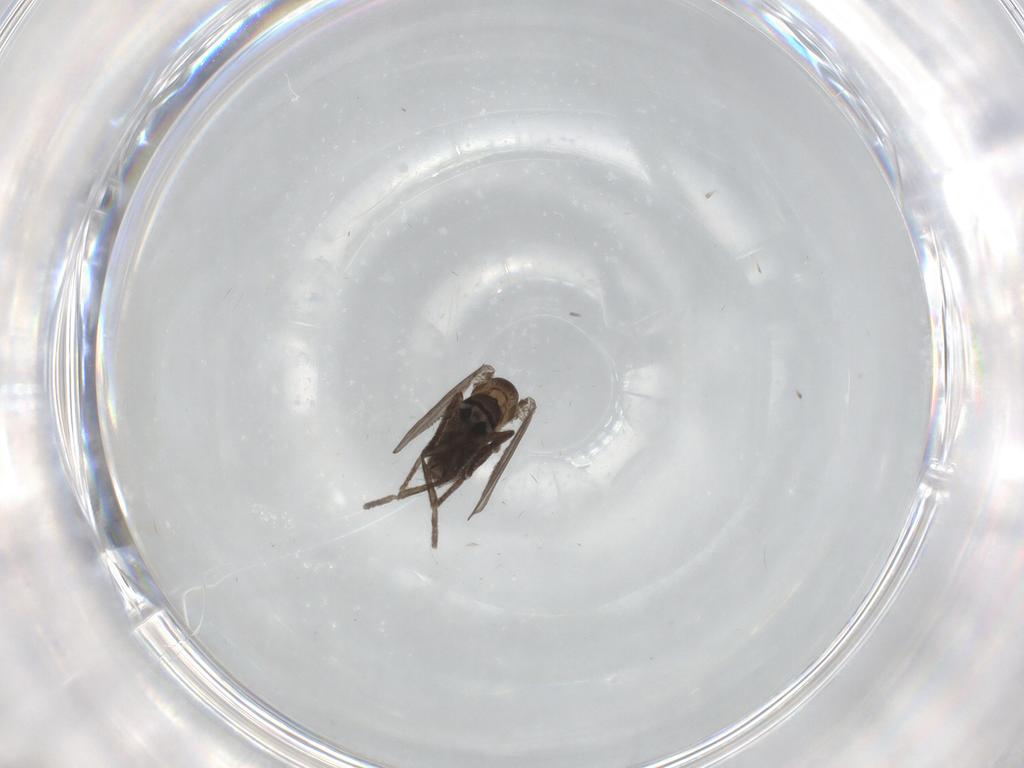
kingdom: Animalia
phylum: Arthropoda
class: Insecta
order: Diptera
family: Psychodidae
